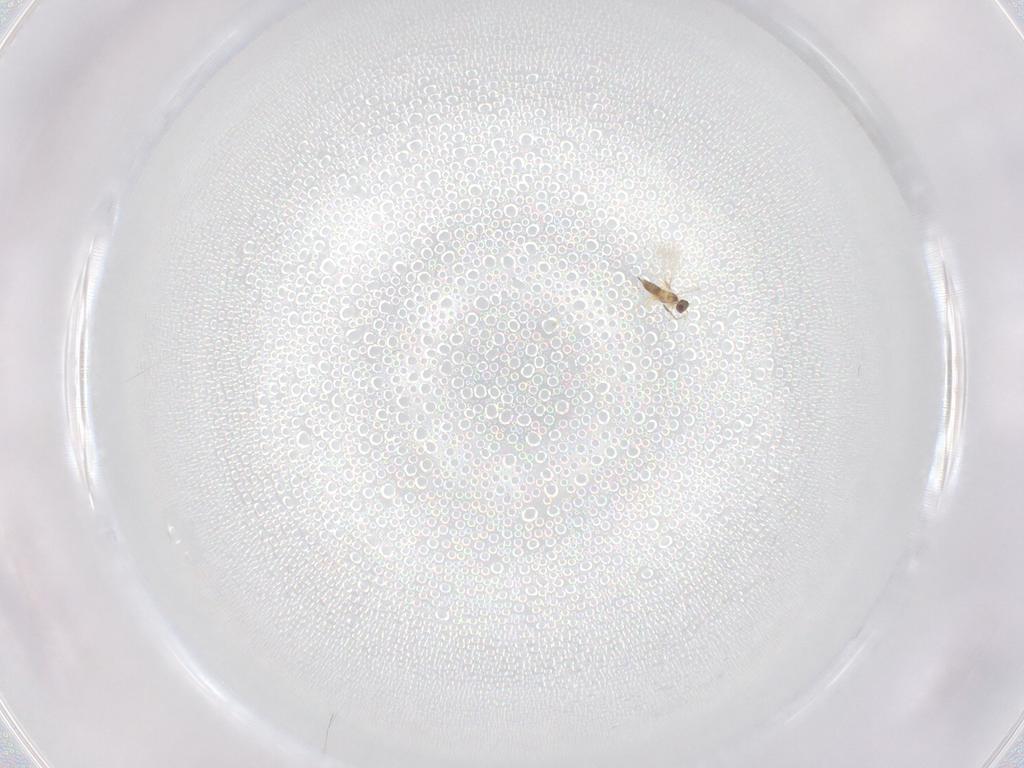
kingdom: Animalia
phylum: Arthropoda
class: Insecta
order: Hymenoptera
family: Mymaridae
